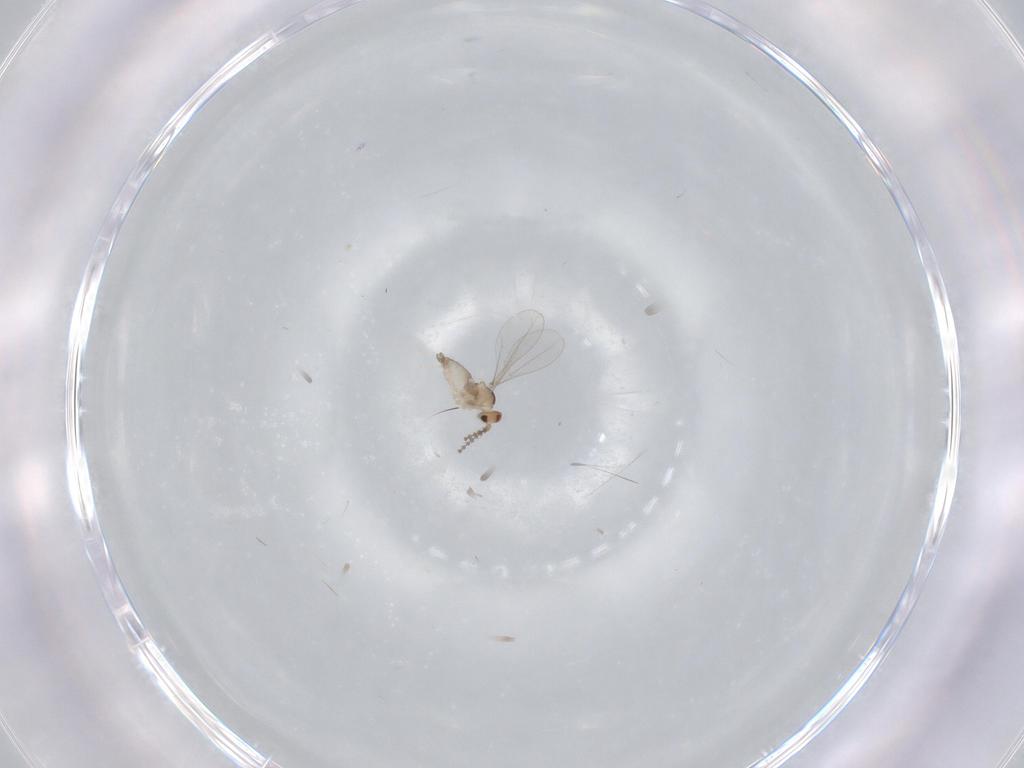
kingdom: Animalia
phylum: Arthropoda
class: Insecta
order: Diptera
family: Cecidomyiidae
